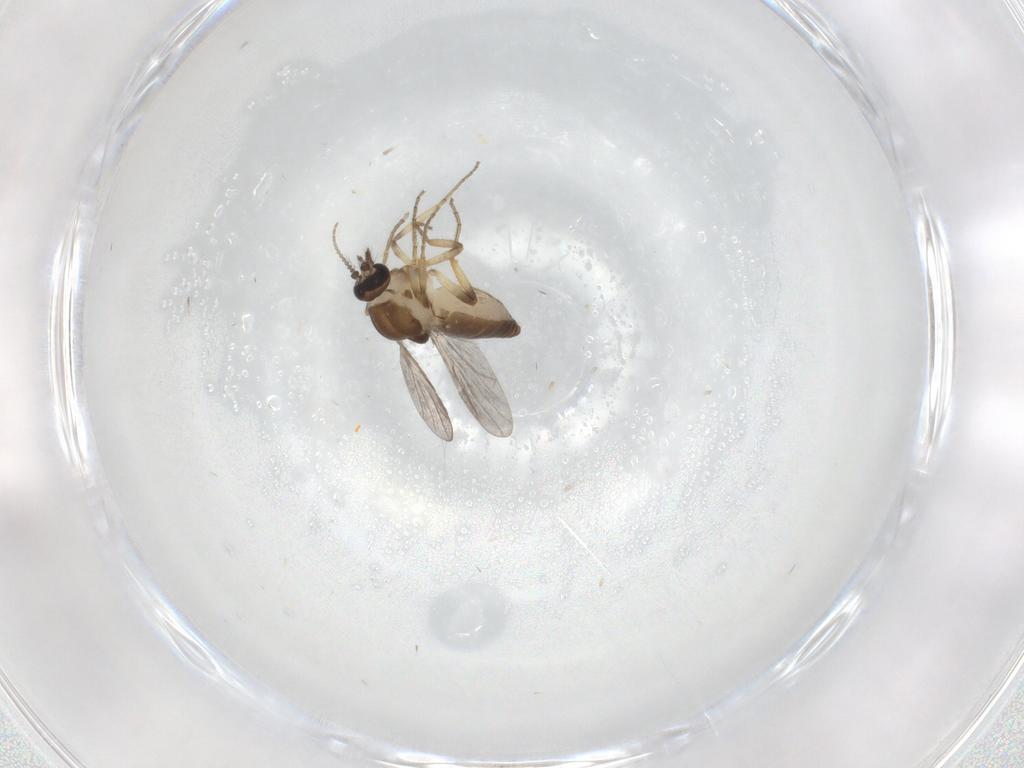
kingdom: Animalia
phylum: Arthropoda
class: Insecta
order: Diptera
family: Ceratopogonidae
